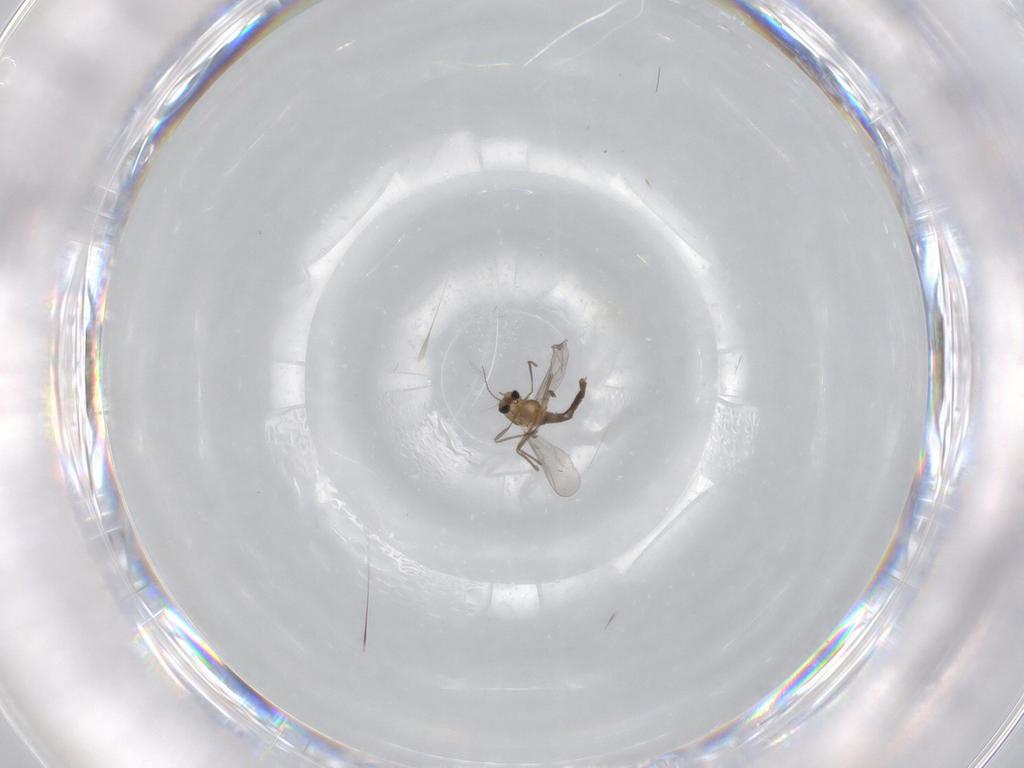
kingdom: Animalia
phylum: Arthropoda
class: Insecta
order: Diptera
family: Chironomidae
